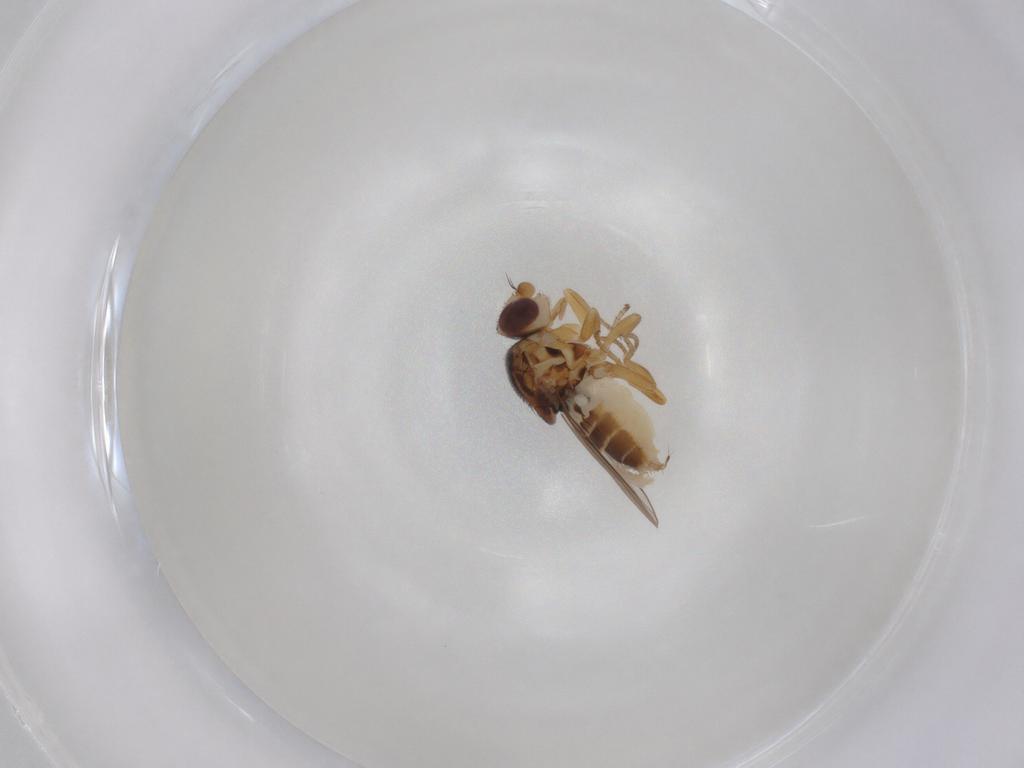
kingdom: Animalia
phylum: Arthropoda
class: Insecta
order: Diptera
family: Chloropidae
